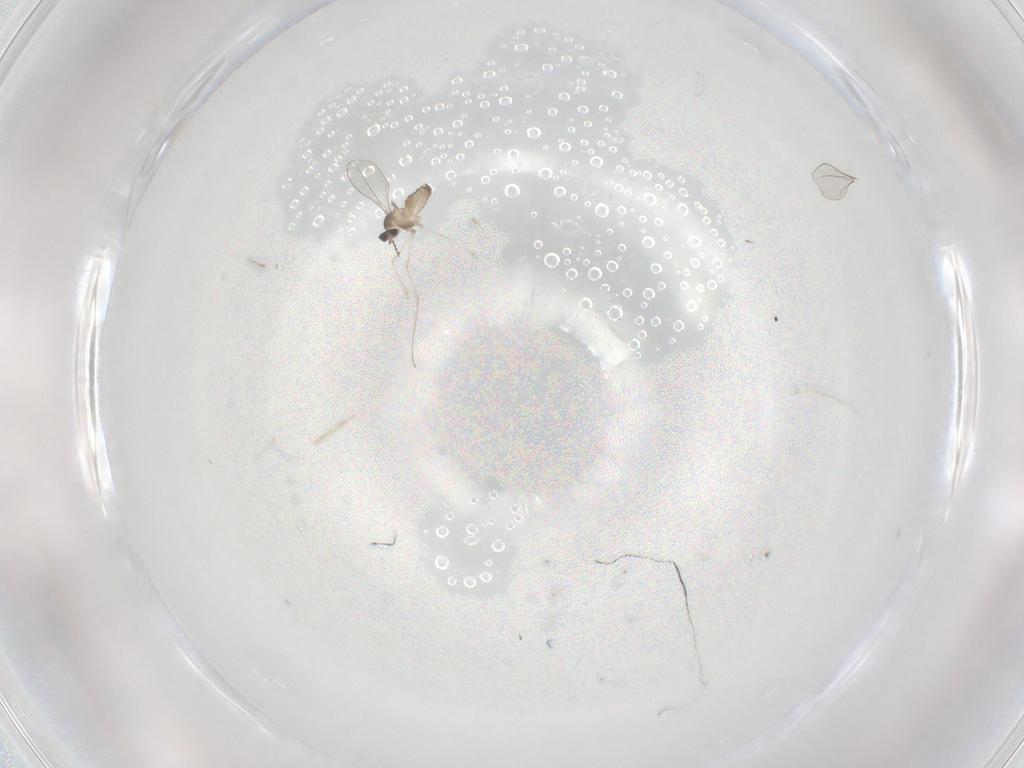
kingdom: Animalia
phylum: Arthropoda
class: Insecta
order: Diptera
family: Cecidomyiidae
